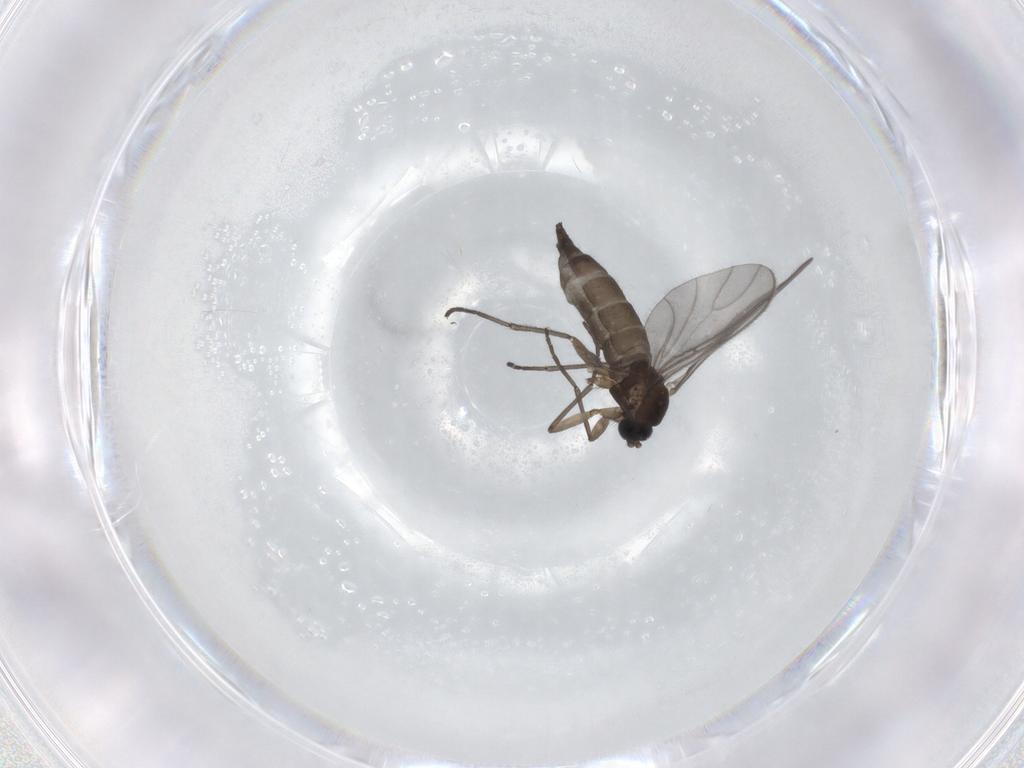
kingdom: Animalia
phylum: Arthropoda
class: Insecta
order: Diptera
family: Sciaridae
